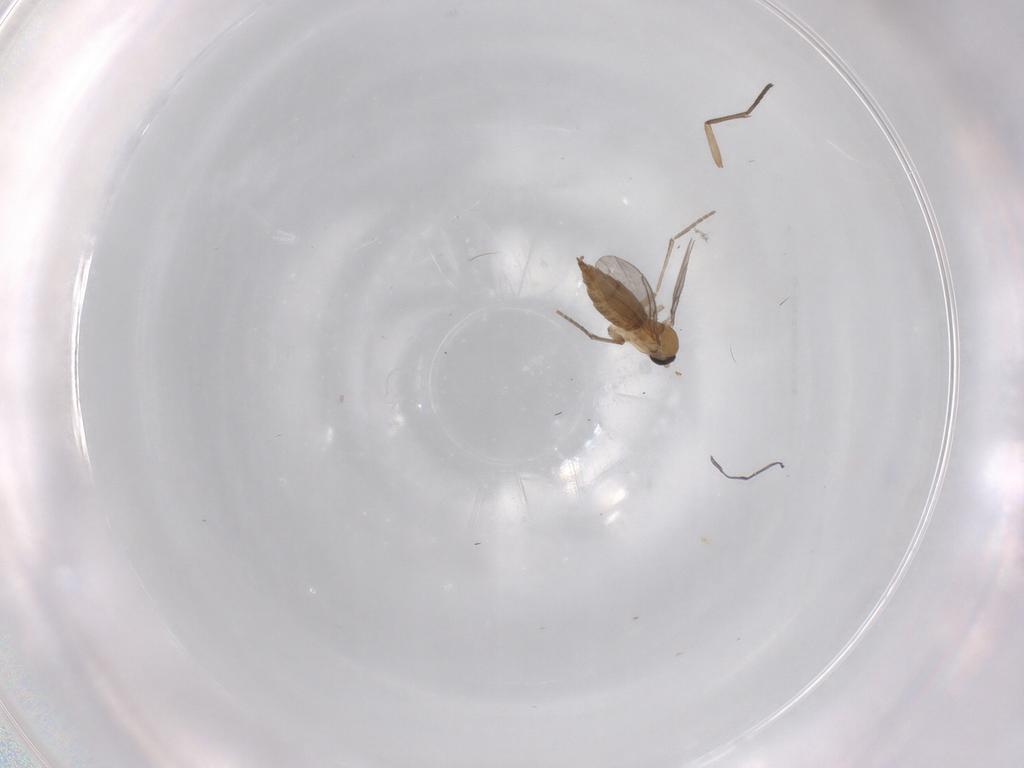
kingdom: Animalia
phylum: Arthropoda
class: Insecta
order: Diptera
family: Sciaridae
